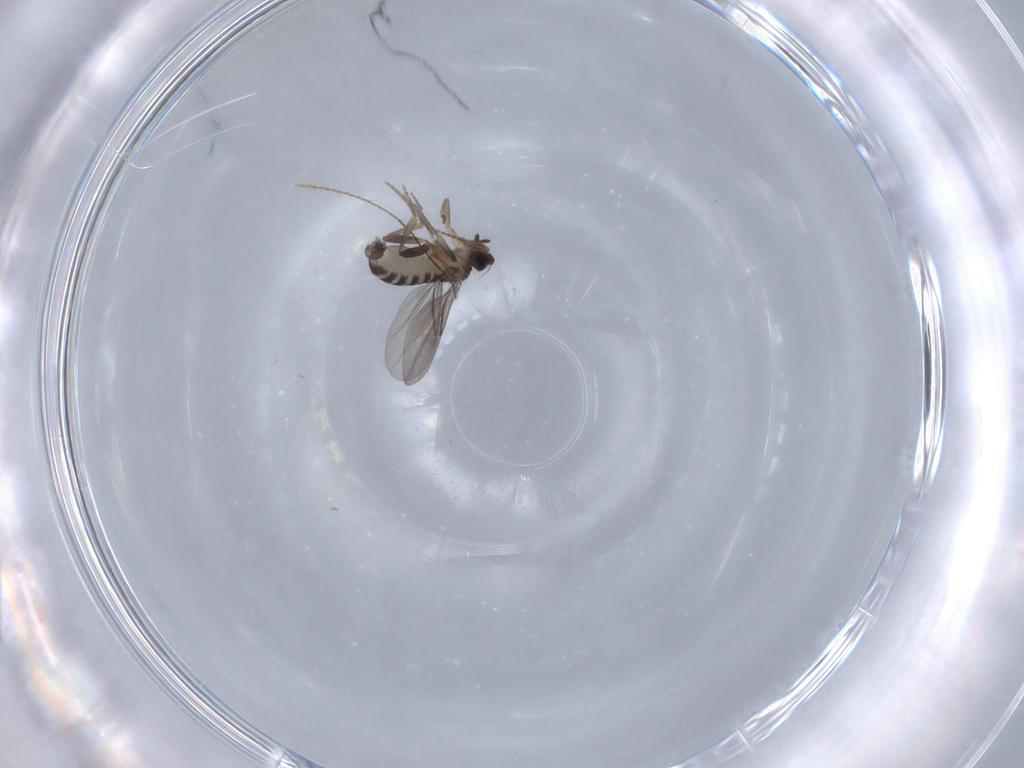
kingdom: Animalia
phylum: Arthropoda
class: Insecta
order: Diptera
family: Ceratopogonidae
